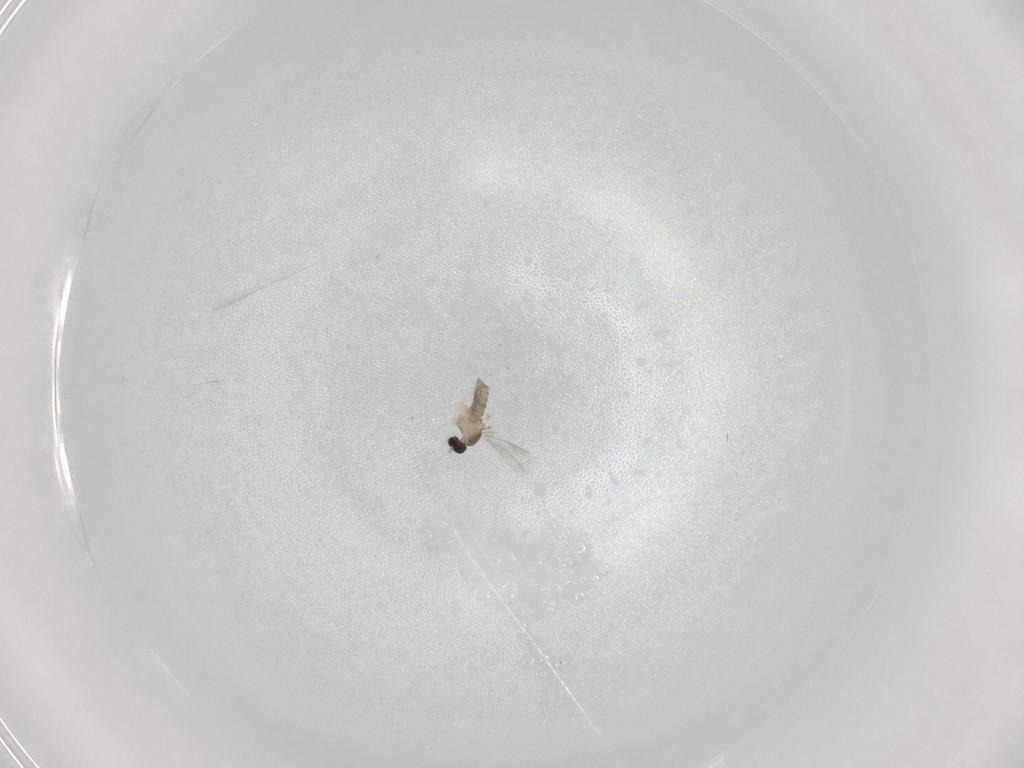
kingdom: Animalia
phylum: Arthropoda
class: Insecta
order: Diptera
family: Cecidomyiidae
